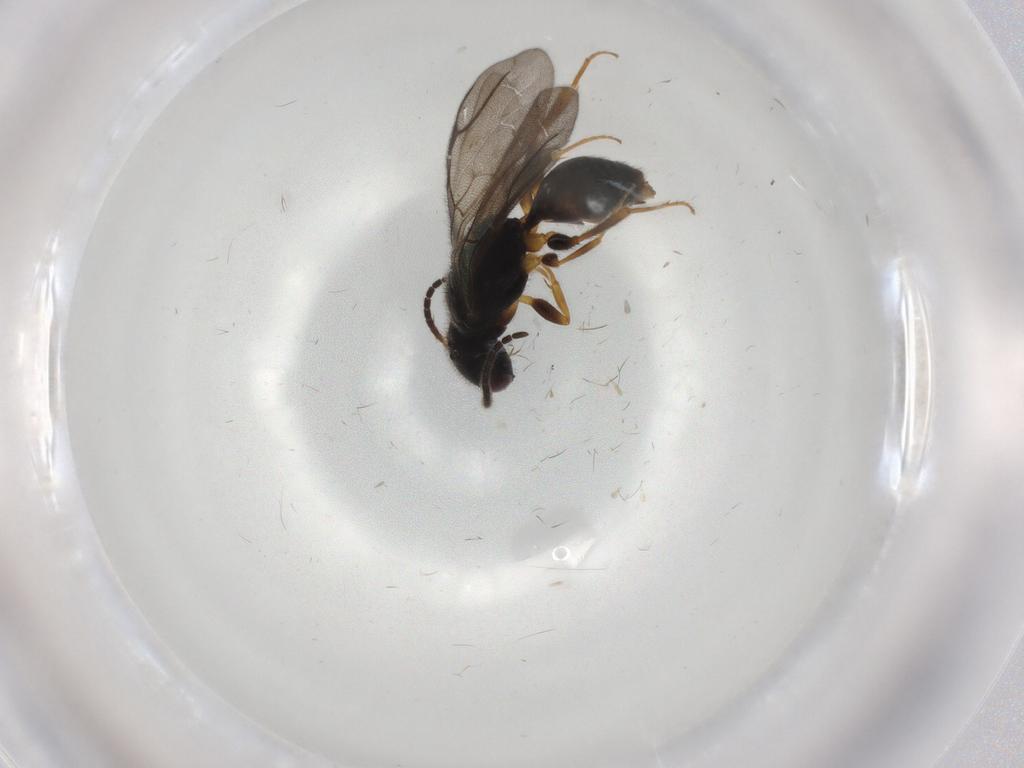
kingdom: Animalia
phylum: Arthropoda
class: Insecta
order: Hymenoptera
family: Bethylidae
